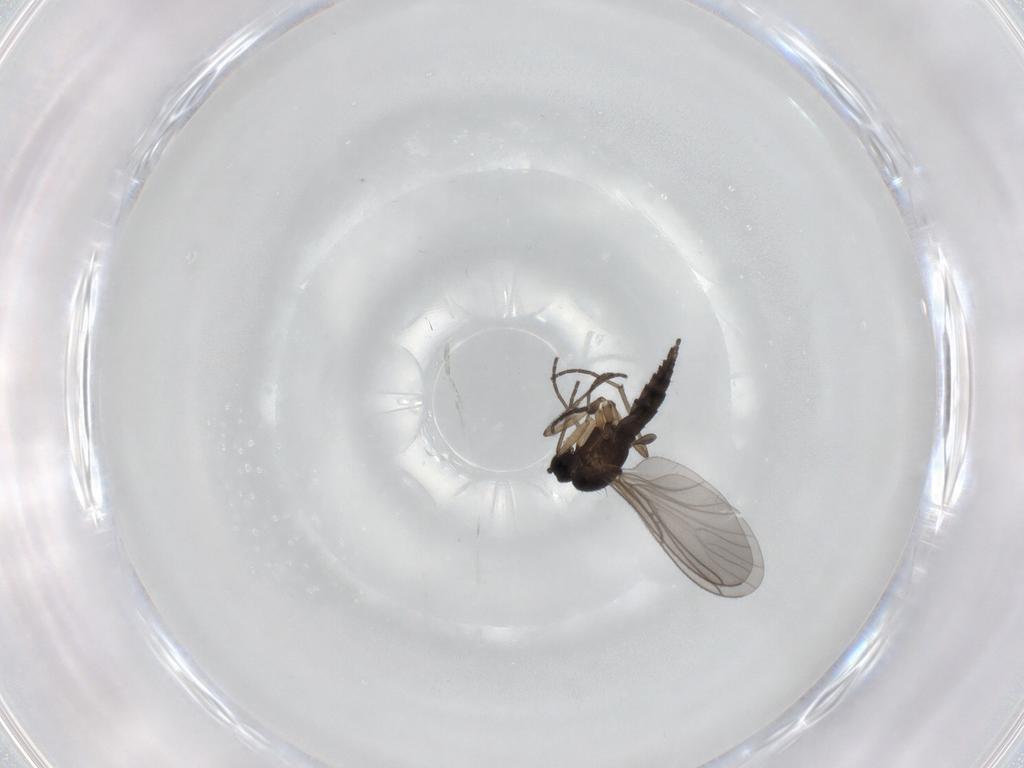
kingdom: Animalia
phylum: Arthropoda
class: Insecta
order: Diptera
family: Sciaridae
